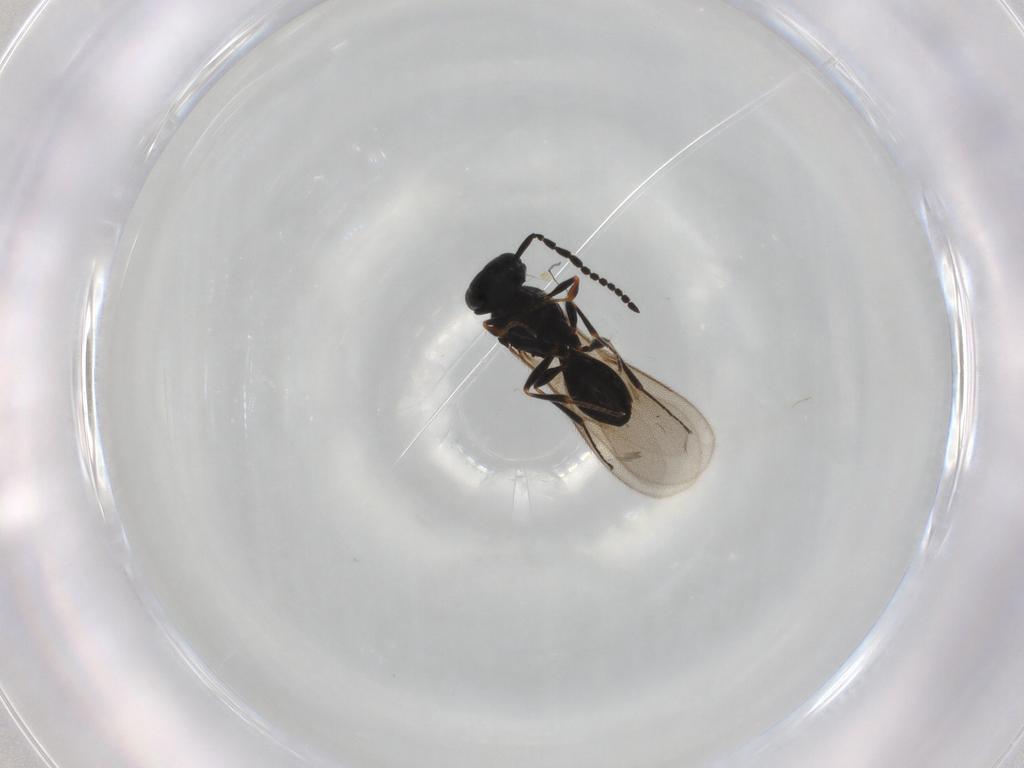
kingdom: Animalia
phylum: Arthropoda
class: Insecta
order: Hymenoptera
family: Scelionidae
